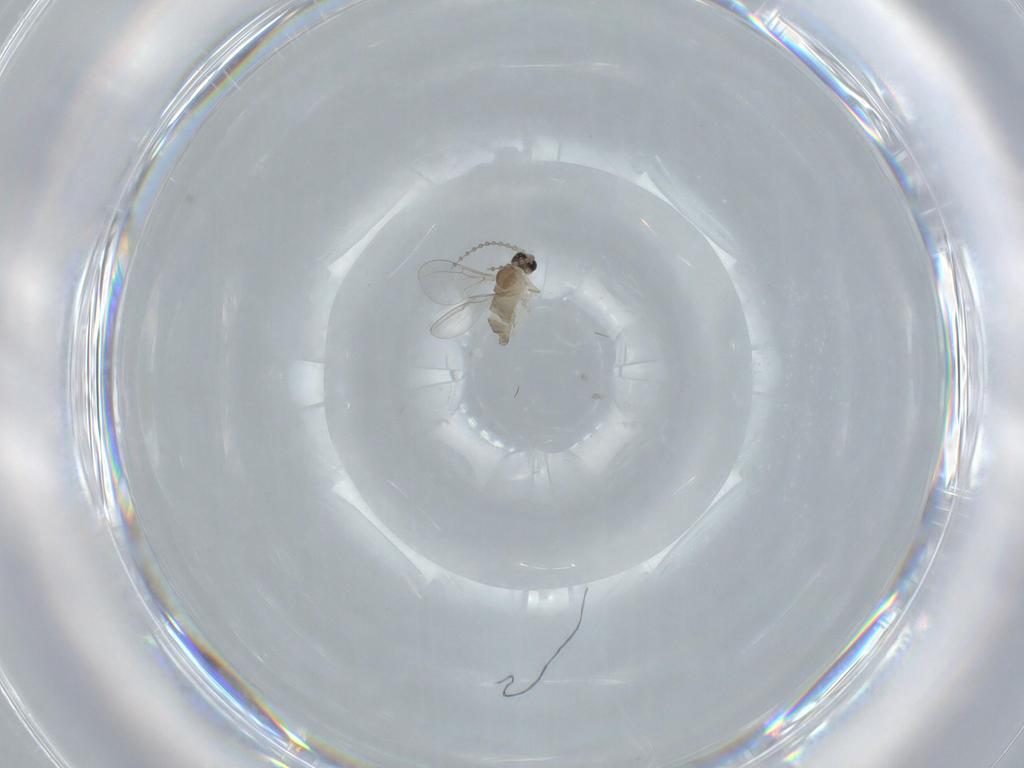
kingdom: Animalia
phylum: Arthropoda
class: Insecta
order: Diptera
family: Cecidomyiidae
